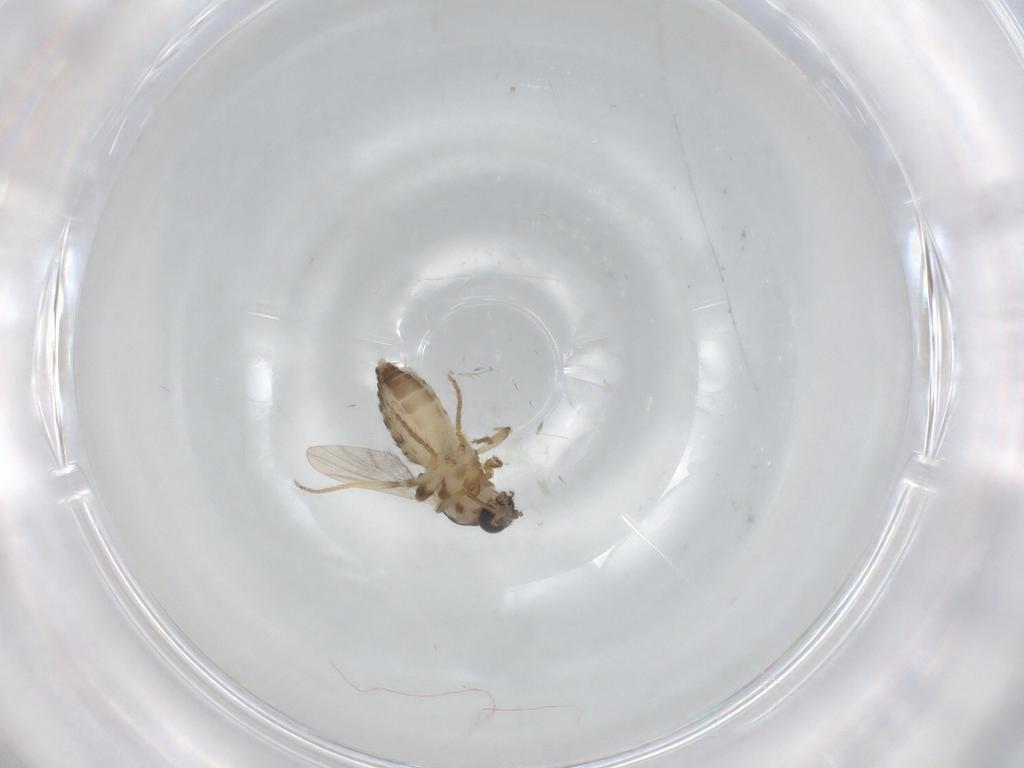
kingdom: Animalia
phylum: Arthropoda
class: Insecta
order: Diptera
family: Ceratopogonidae
